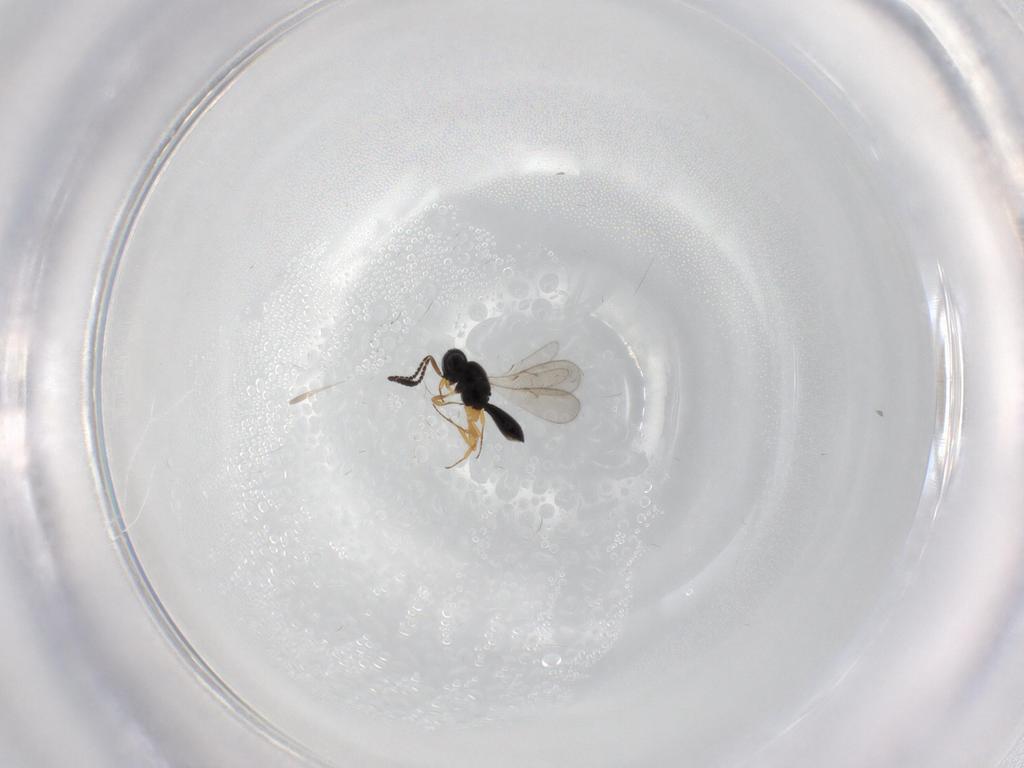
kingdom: Animalia
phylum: Arthropoda
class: Insecta
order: Hymenoptera
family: Scelionidae
